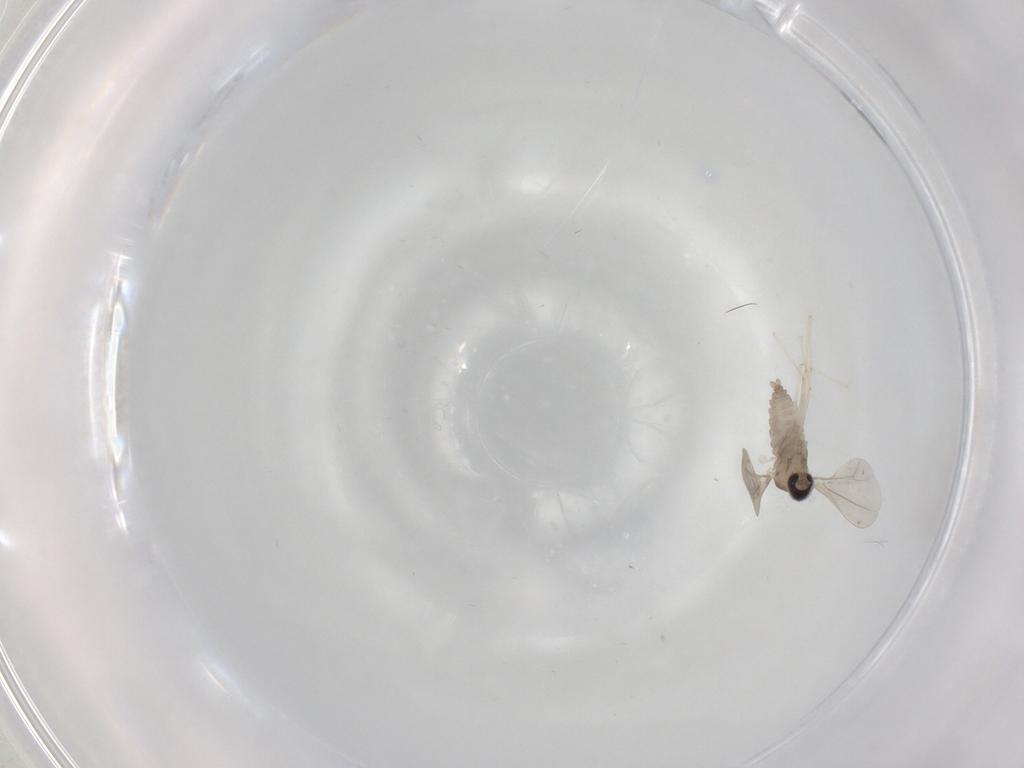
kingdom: Animalia
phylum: Arthropoda
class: Insecta
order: Diptera
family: Cecidomyiidae
